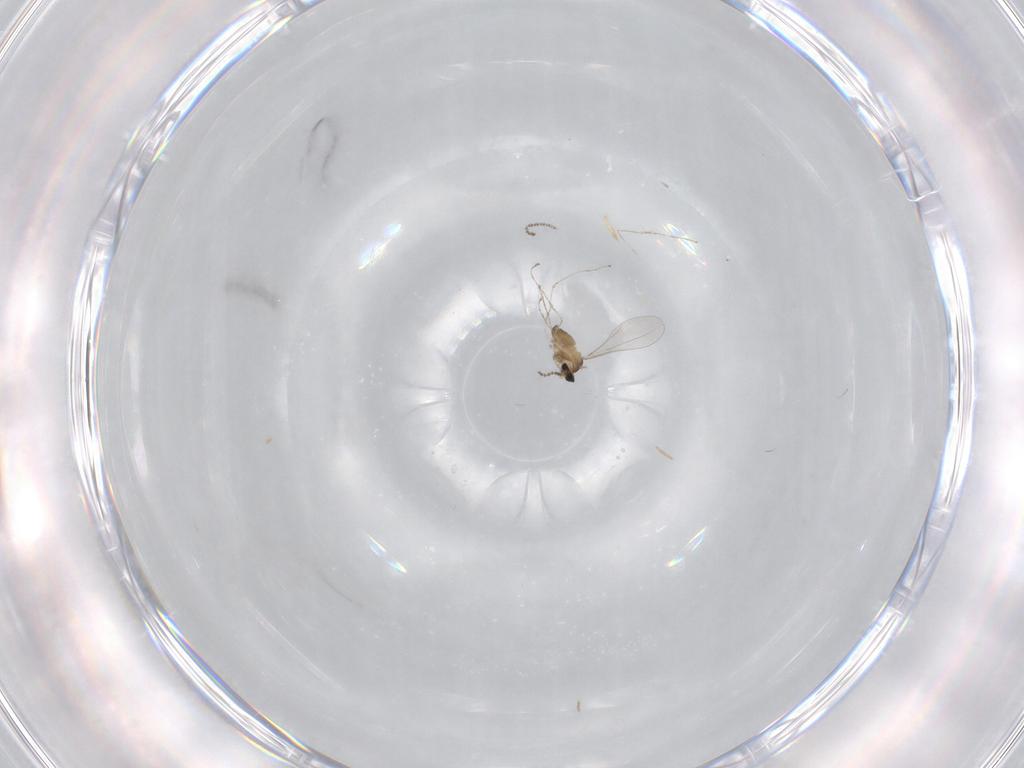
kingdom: Animalia
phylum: Arthropoda
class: Insecta
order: Diptera
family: Cecidomyiidae
